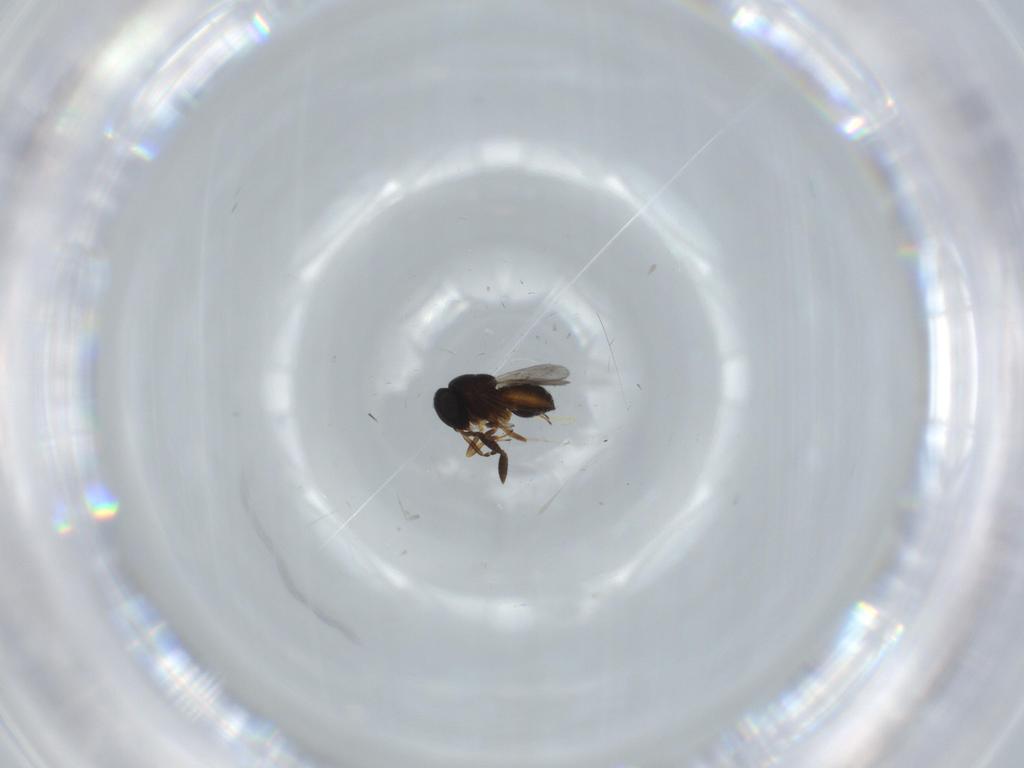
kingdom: Animalia
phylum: Arthropoda
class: Insecta
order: Hymenoptera
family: Scelionidae
